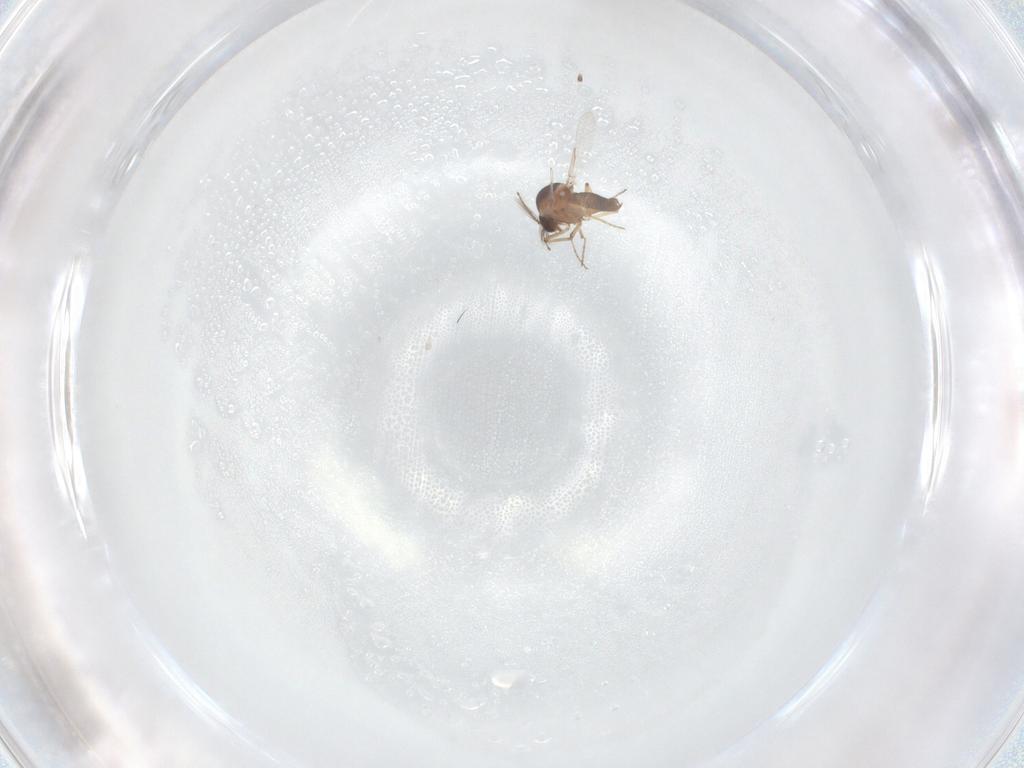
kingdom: Animalia
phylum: Arthropoda
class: Insecta
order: Diptera
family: Ceratopogonidae
